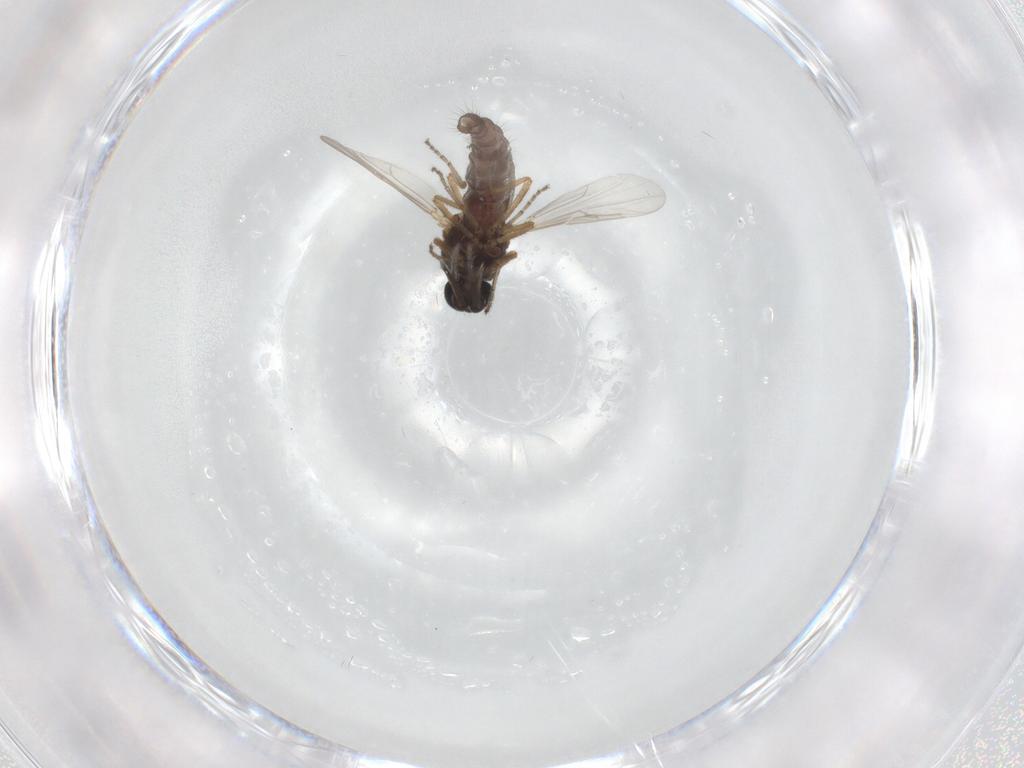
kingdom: Animalia
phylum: Arthropoda
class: Insecta
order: Diptera
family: Ceratopogonidae
